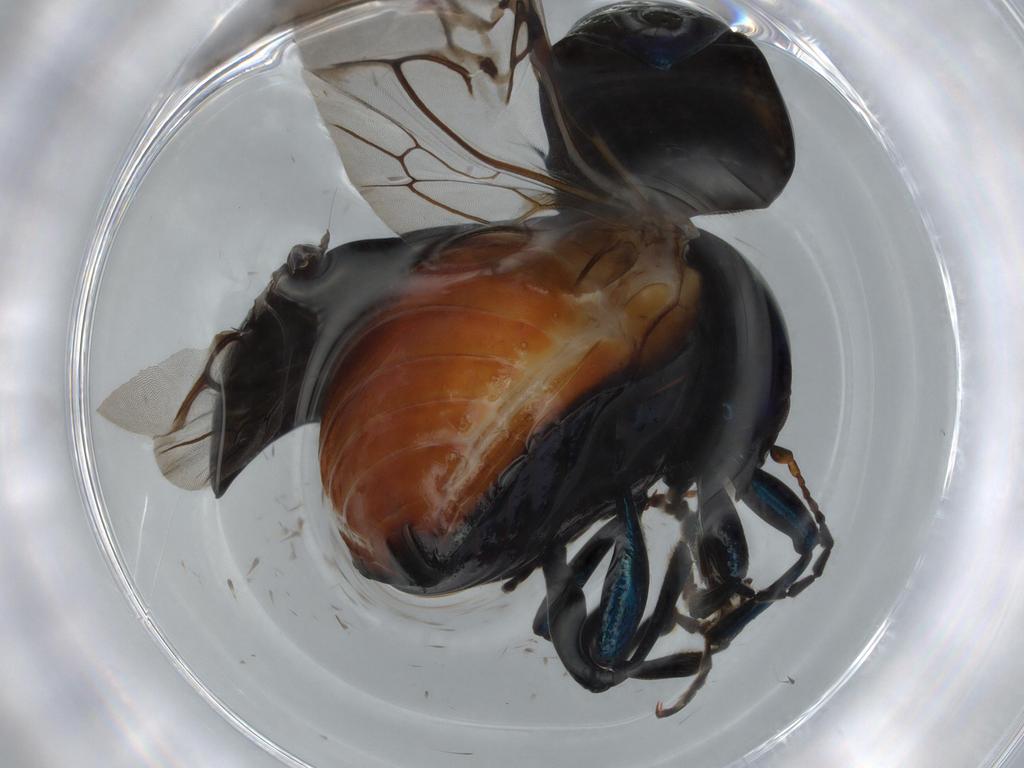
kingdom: Animalia
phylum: Arthropoda
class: Insecta
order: Coleoptera
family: Chrysomelidae
